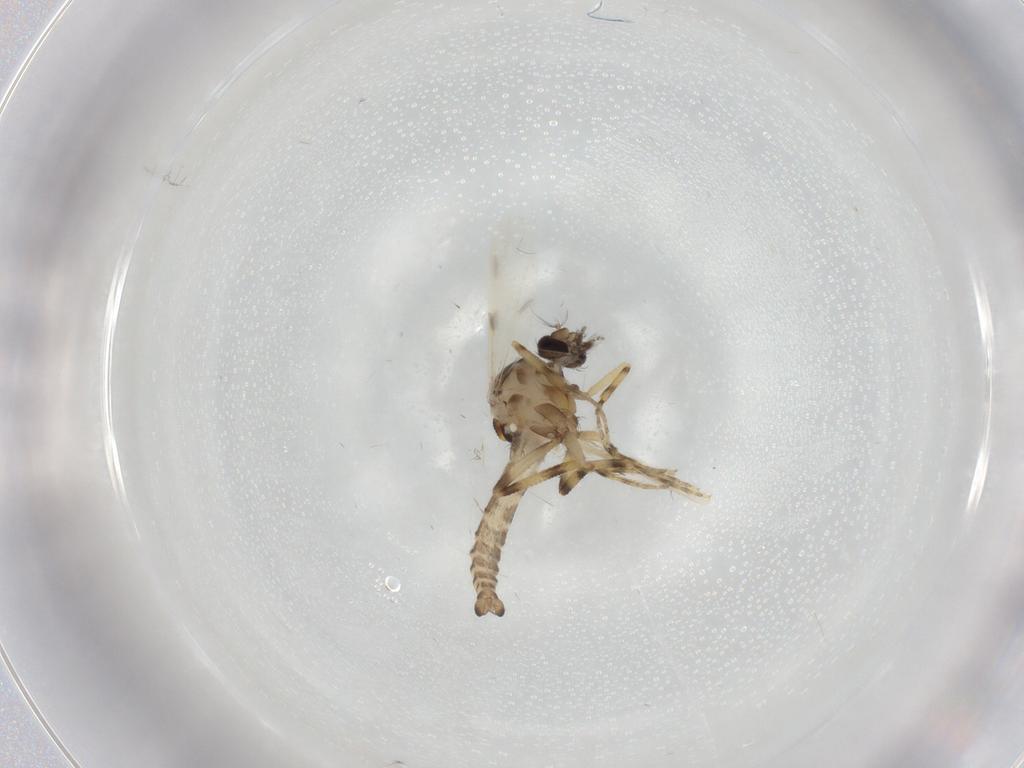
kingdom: Animalia
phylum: Arthropoda
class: Insecta
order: Diptera
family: Ceratopogonidae
